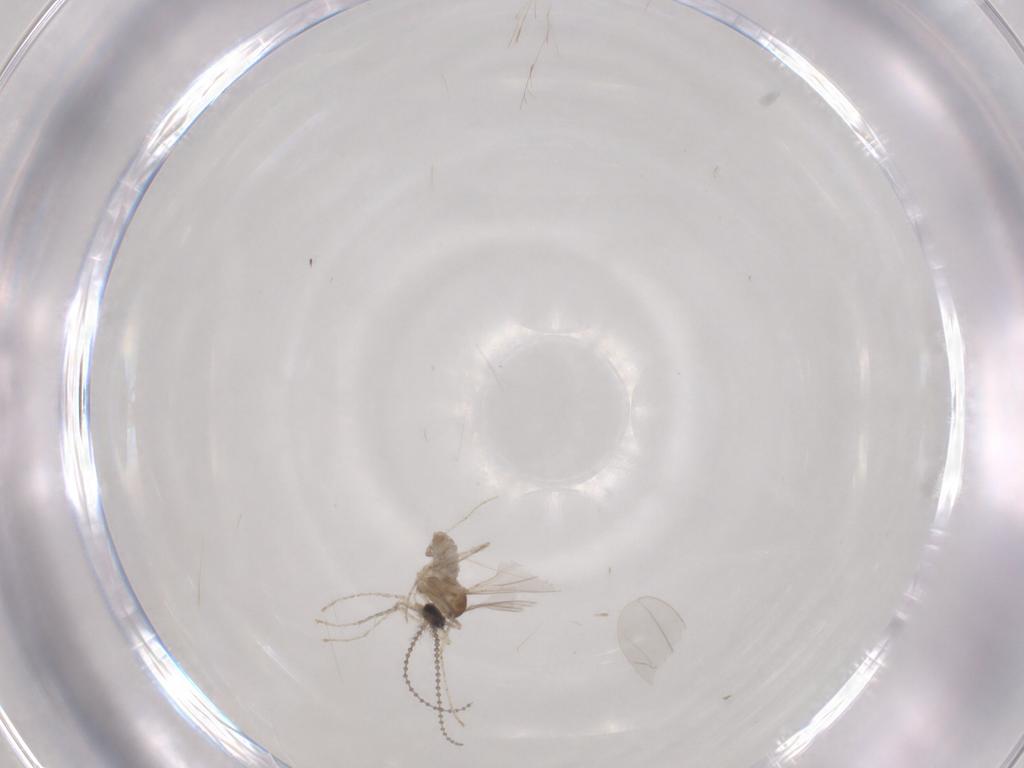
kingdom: Animalia
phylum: Arthropoda
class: Insecta
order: Diptera
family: Cecidomyiidae
